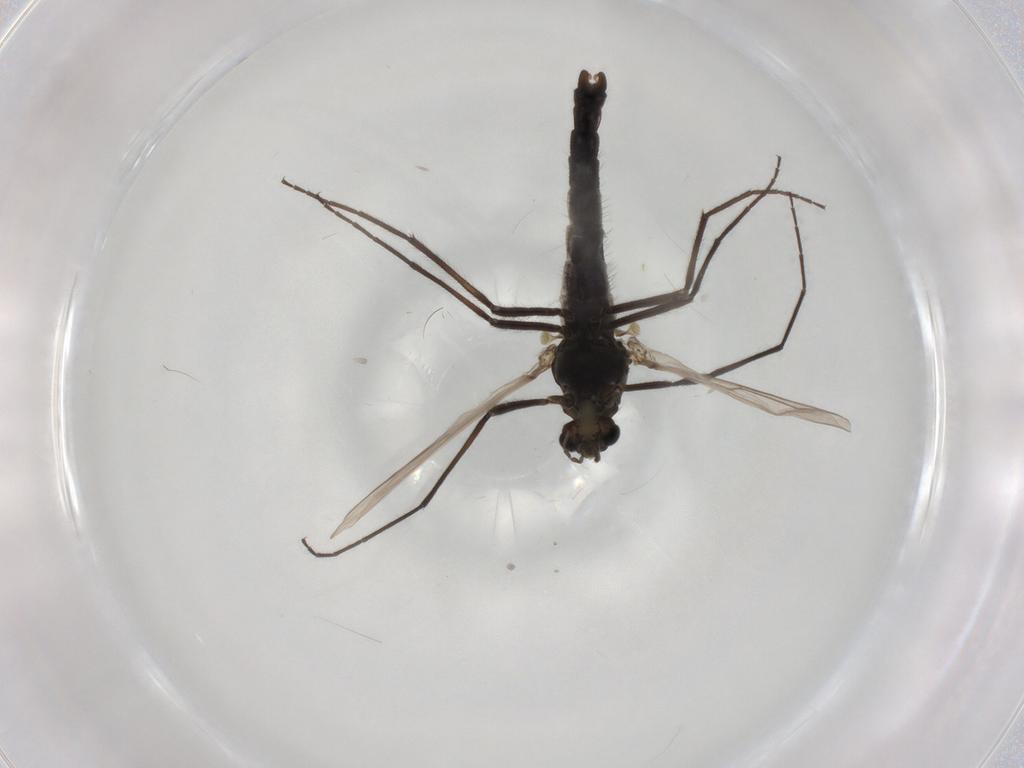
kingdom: Animalia
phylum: Arthropoda
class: Insecta
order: Diptera
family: Chironomidae
